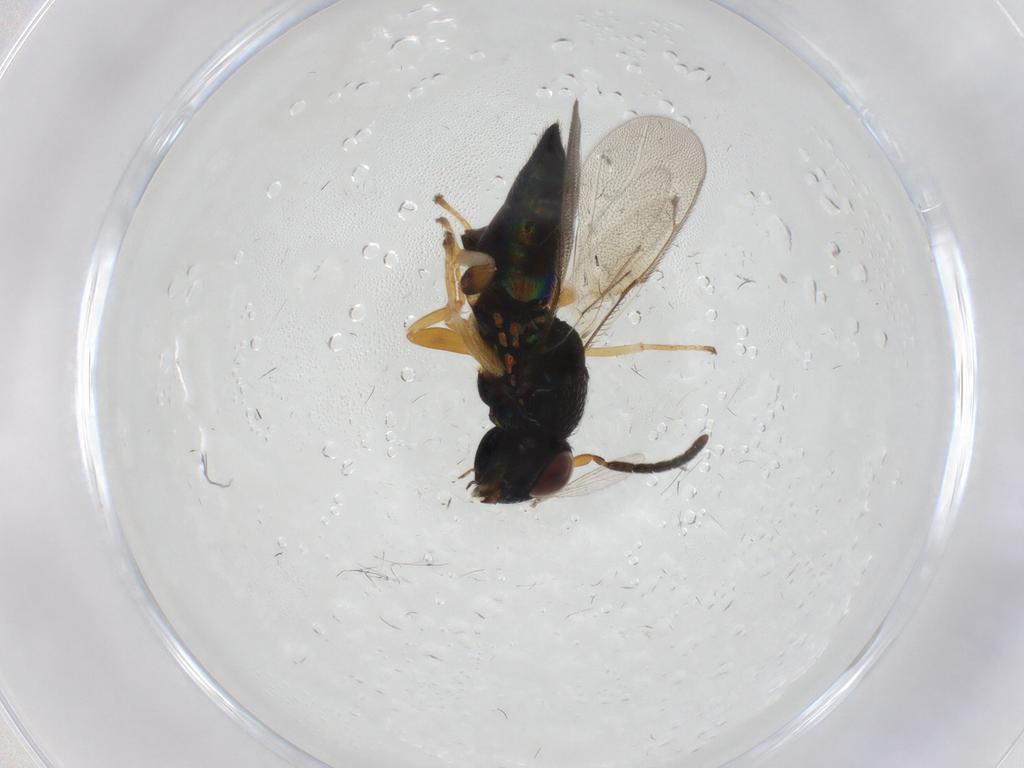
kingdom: Animalia
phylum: Arthropoda
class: Insecta
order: Hymenoptera
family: Pteromalidae
